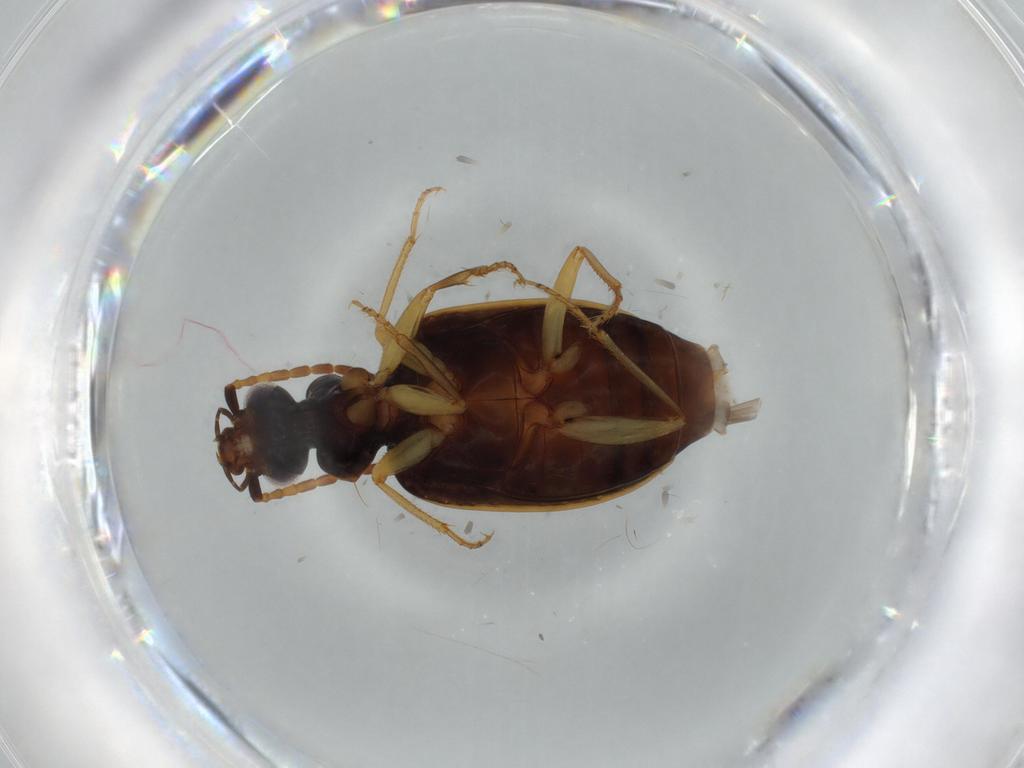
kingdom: Animalia
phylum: Arthropoda
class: Insecta
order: Coleoptera
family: Carabidae
